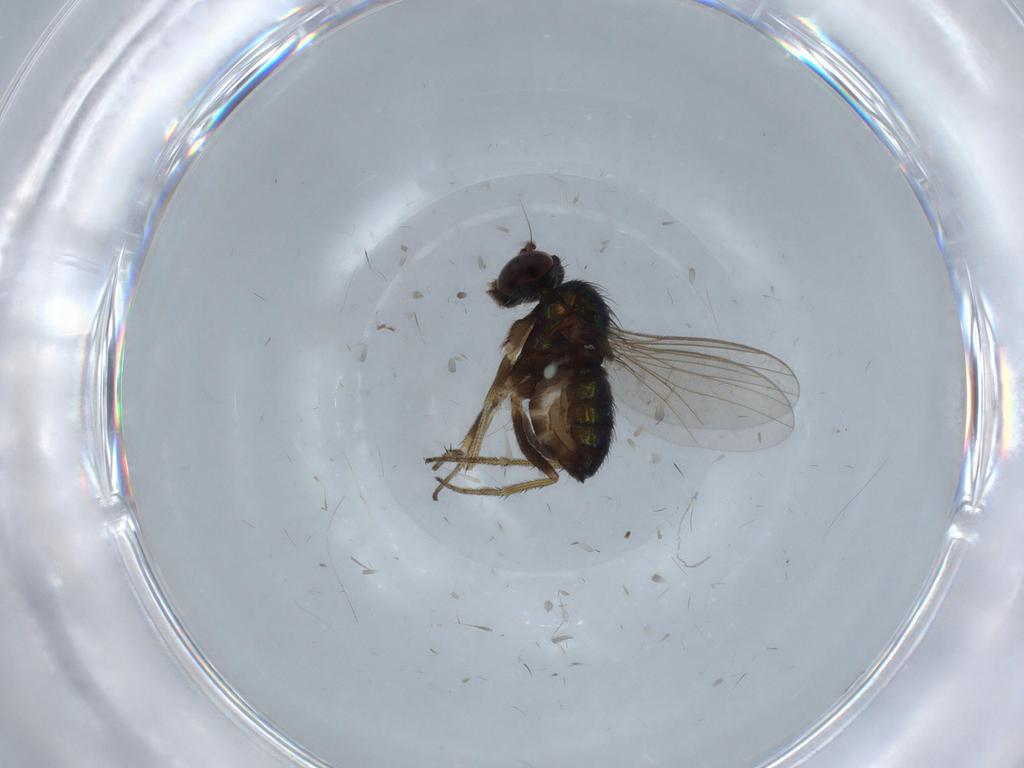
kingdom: Animalia
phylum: Arthropoda
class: Insecta
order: Diptera
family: Dolichopodidae
